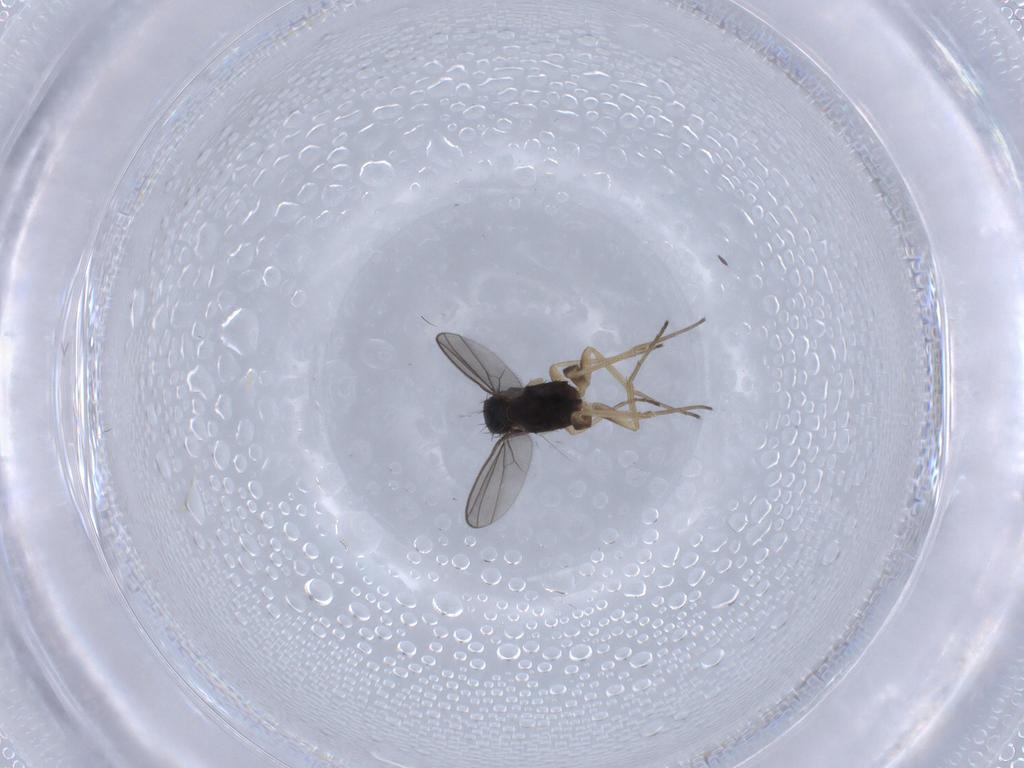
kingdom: Animalia
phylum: Arthropoda
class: Insecta
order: Diptera
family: Dolichopodidae
